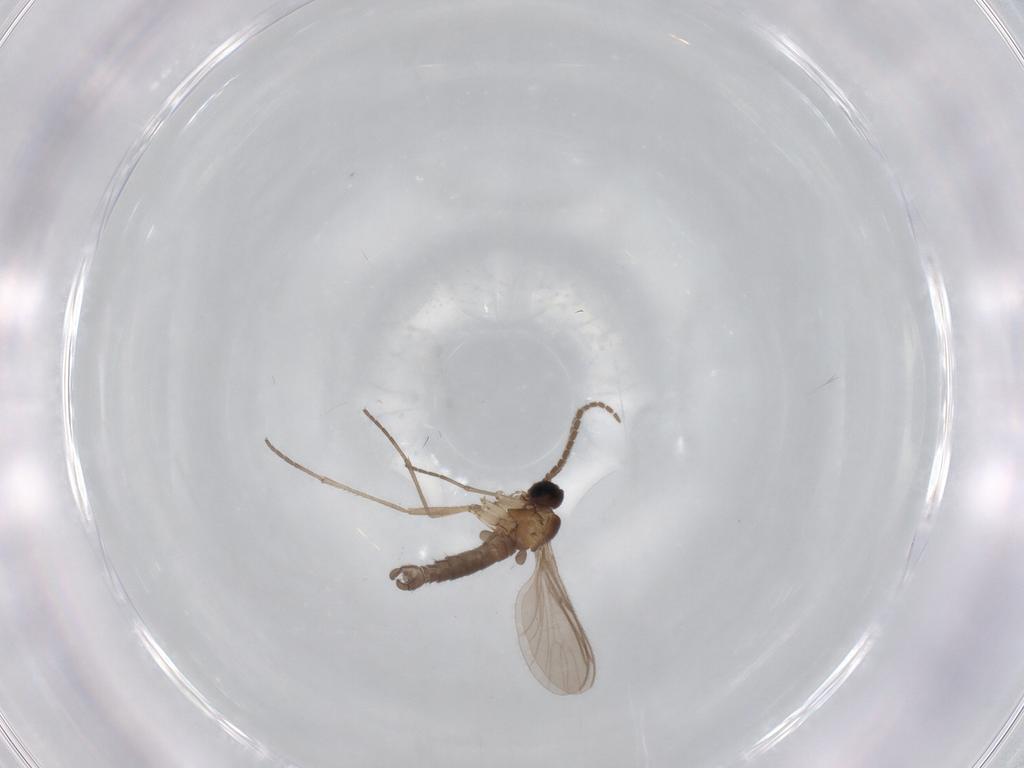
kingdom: Animalia
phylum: Arthropoda
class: Insecta
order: Diptera
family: Sciaridae
